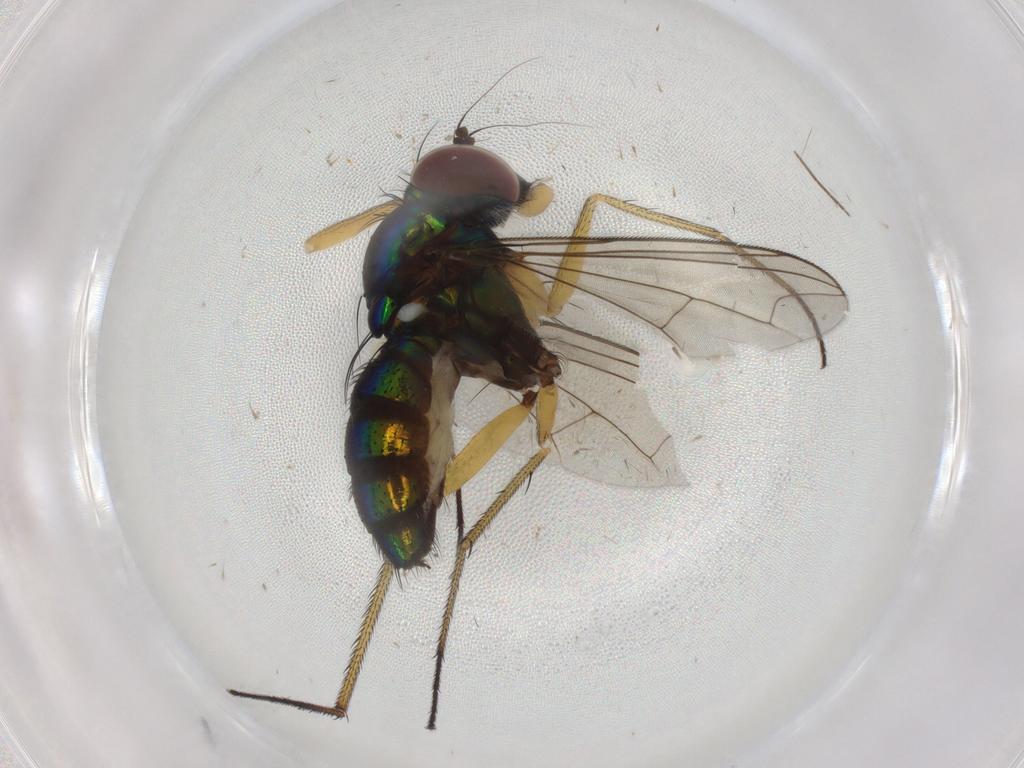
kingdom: Animalia
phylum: Arthropoda
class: Insecta
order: Diptera
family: Dolichopodidae
